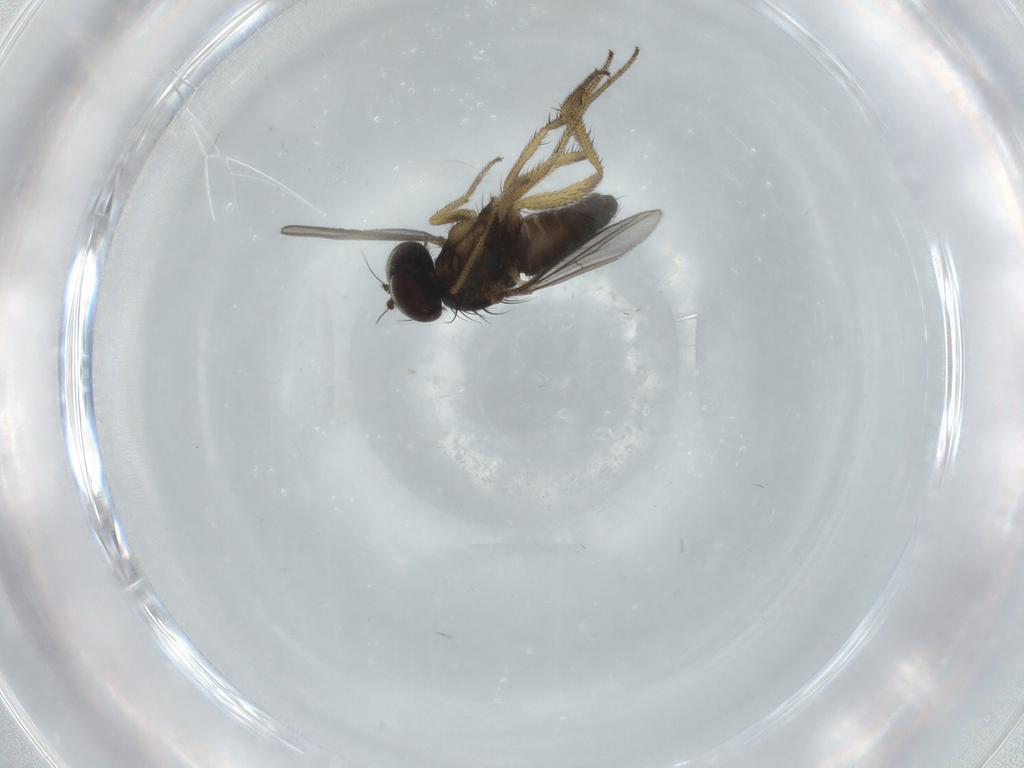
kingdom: Animalia
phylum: Arthropoda
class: Insecta
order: Diptera
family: Dolichopodidae
